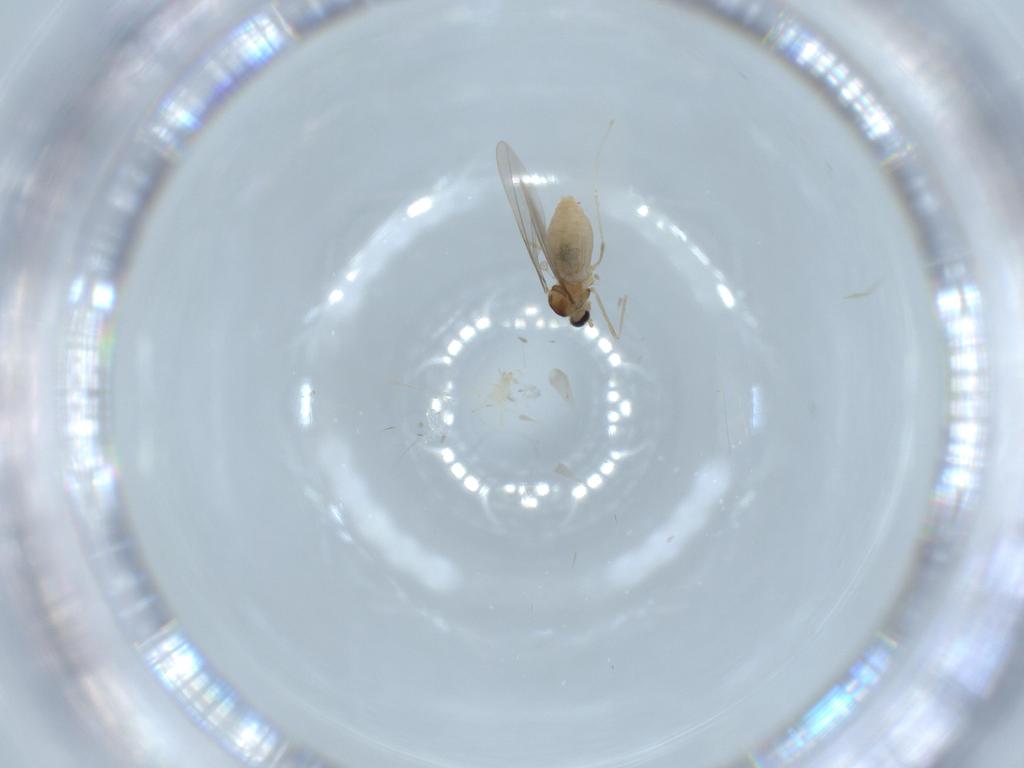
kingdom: Animalia
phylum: Arthropoda
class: Insecta
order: Diptera
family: Cecidomyiidae
